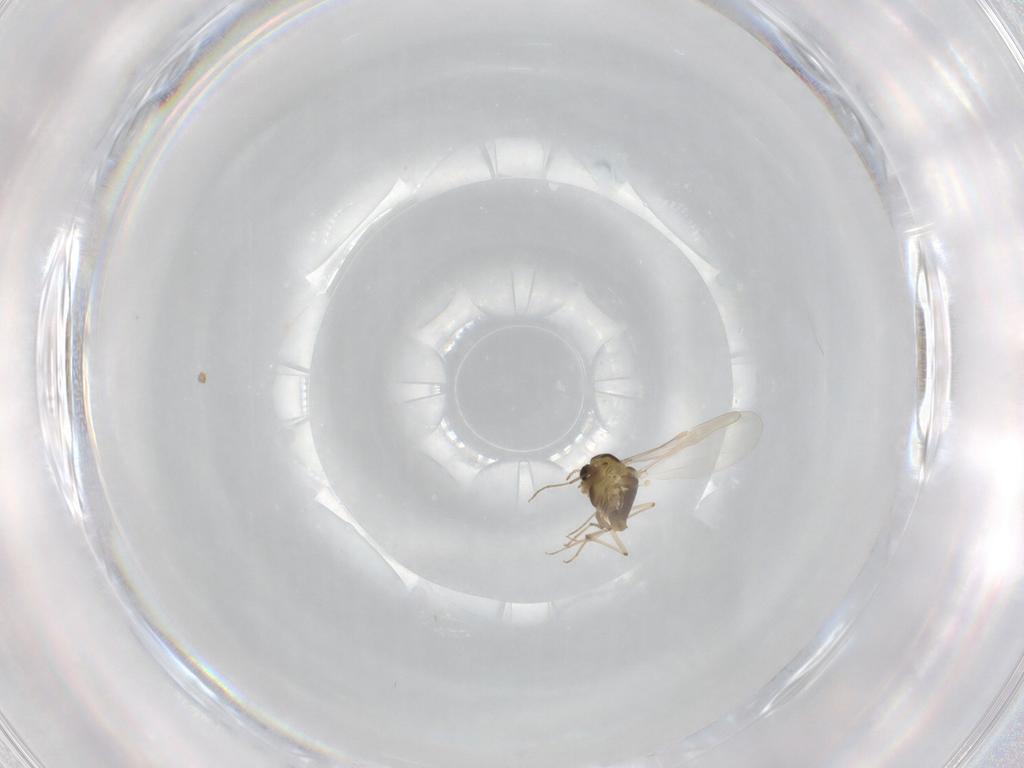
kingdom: Animalia
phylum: Arthropoda
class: Insecta
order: Diptera
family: Chironomidae
